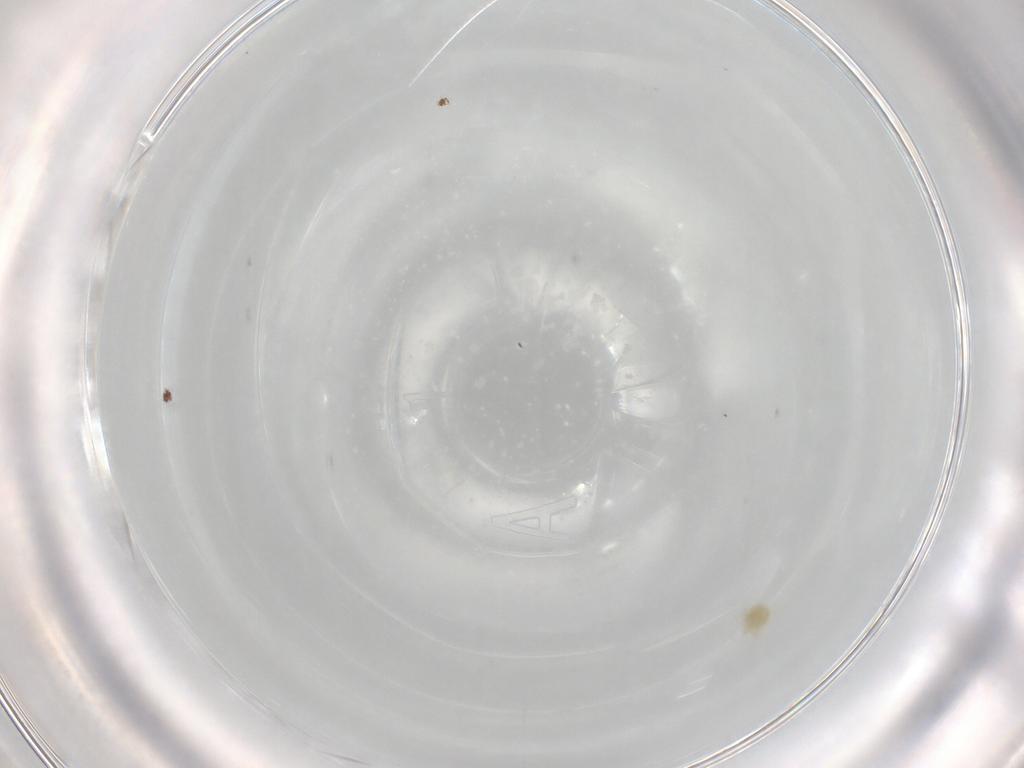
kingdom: Animalia
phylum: Arthropoda
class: Arachnida
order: Trombidiformes
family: Eupodidae
